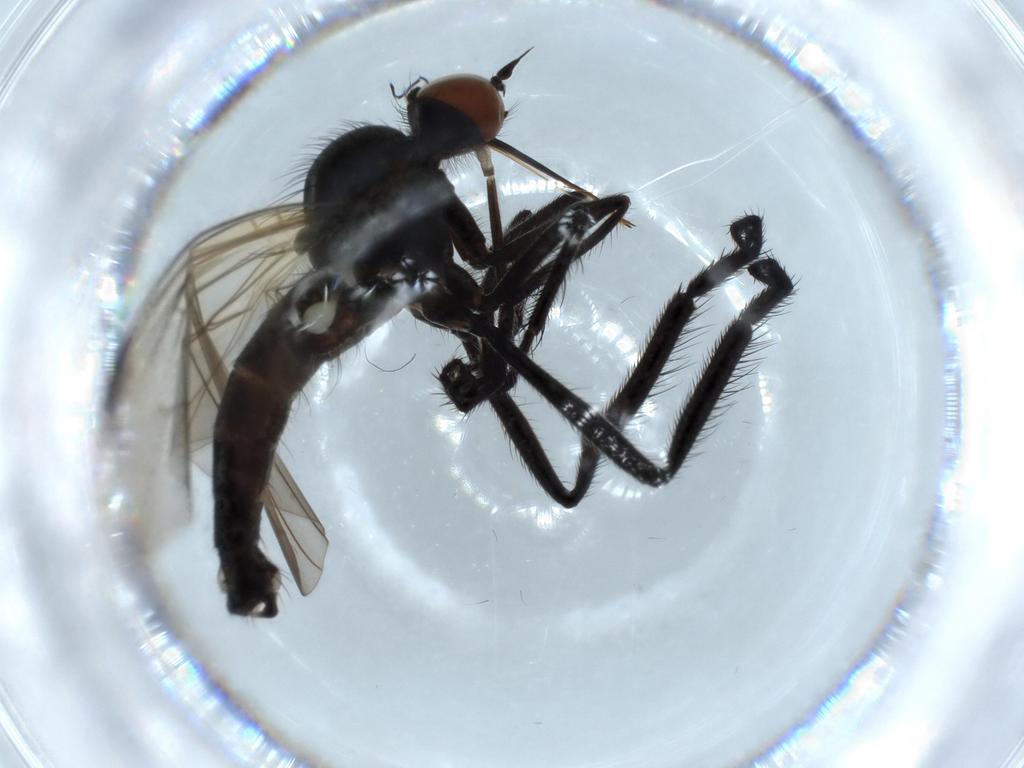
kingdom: Animalia
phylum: Arthropoda
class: Insecta
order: Diptera
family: Empididae
